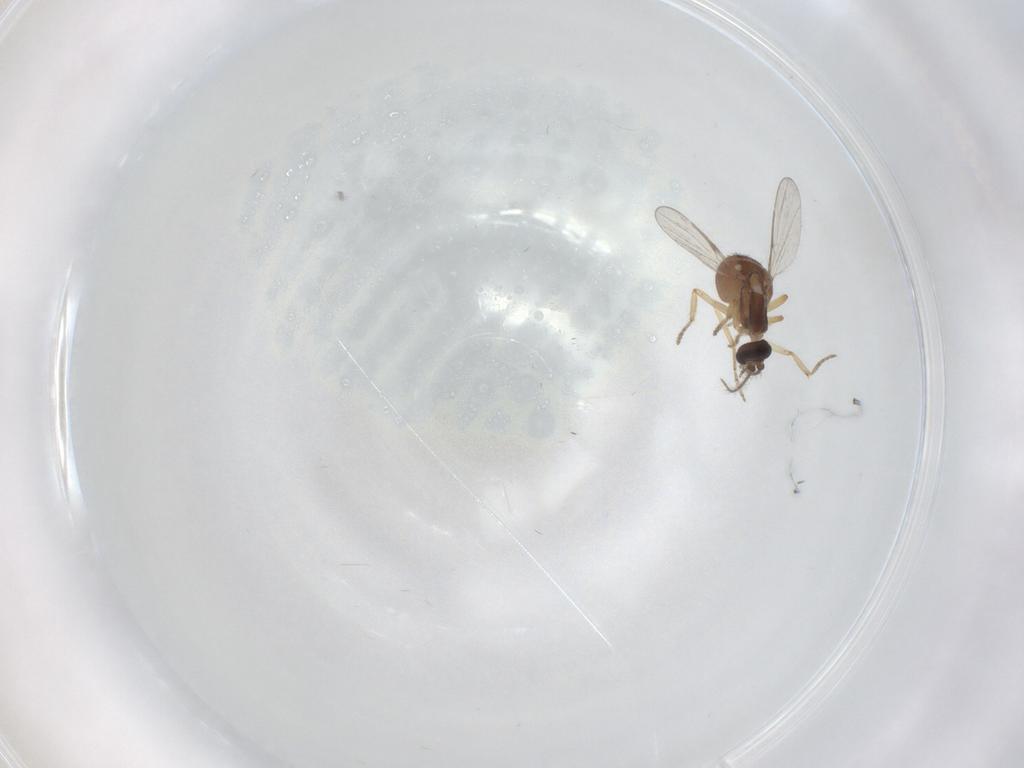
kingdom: Animalia
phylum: Arthropoda
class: Insecta
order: Diptera
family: Ceratopogonidae
